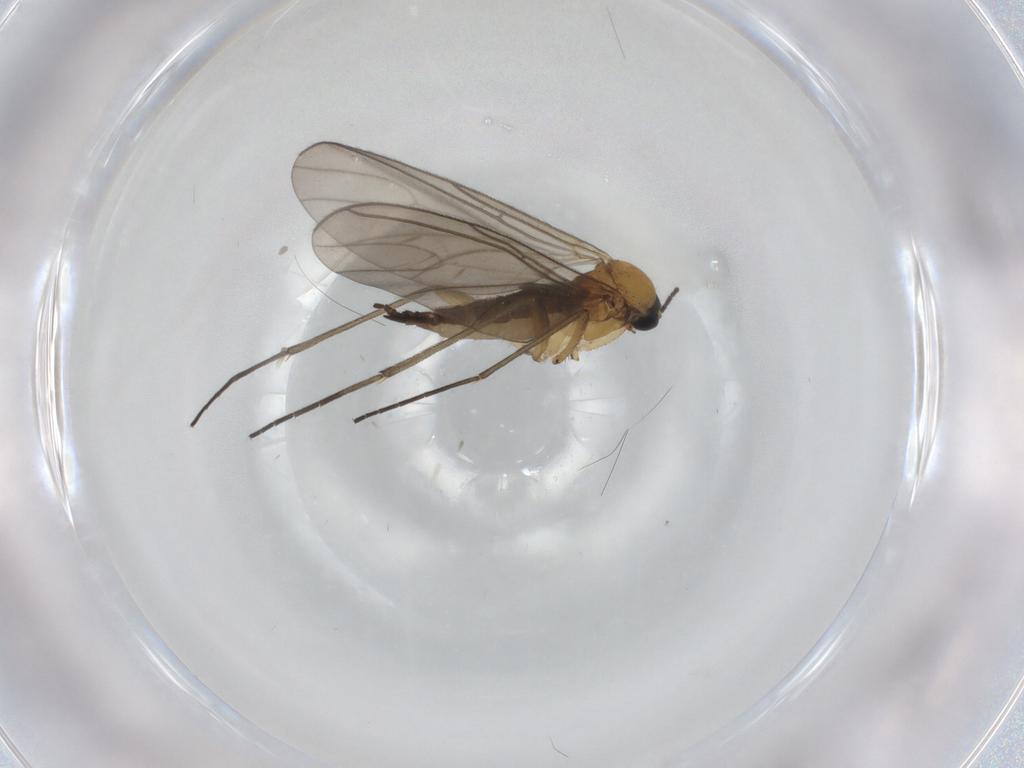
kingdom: Animalia
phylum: Arthropoda
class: Insecta
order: Diptera
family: Sciaridae
